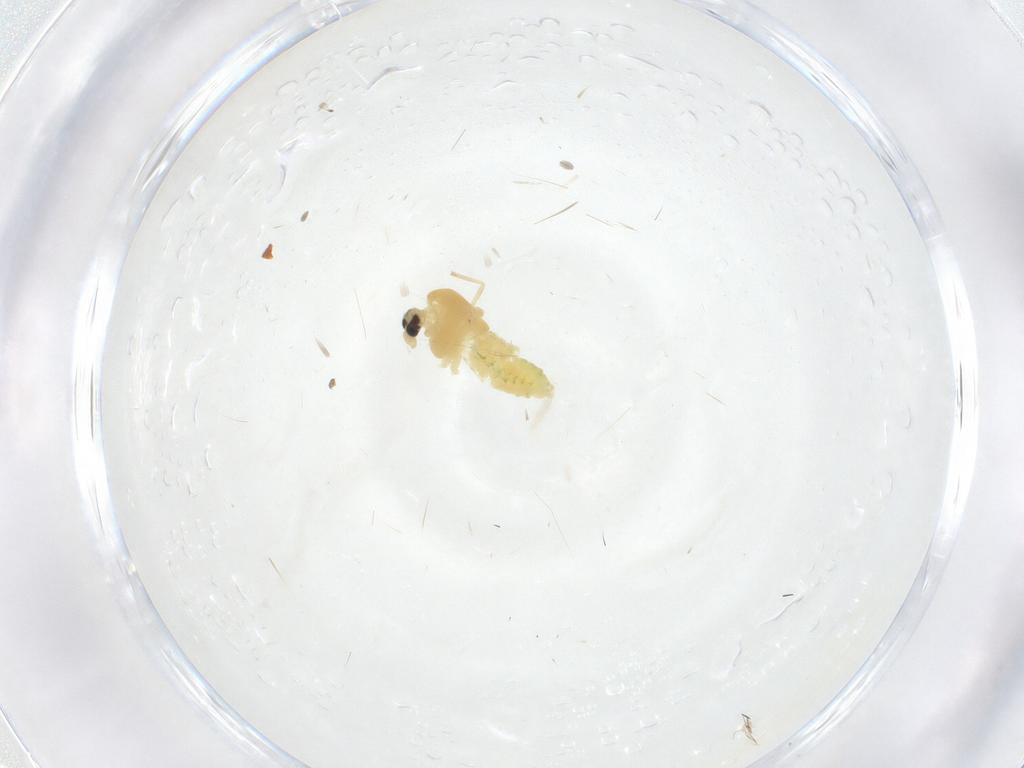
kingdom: Animalia
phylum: Arthropoda
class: Insecta
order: Diptera
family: Chironomidae
